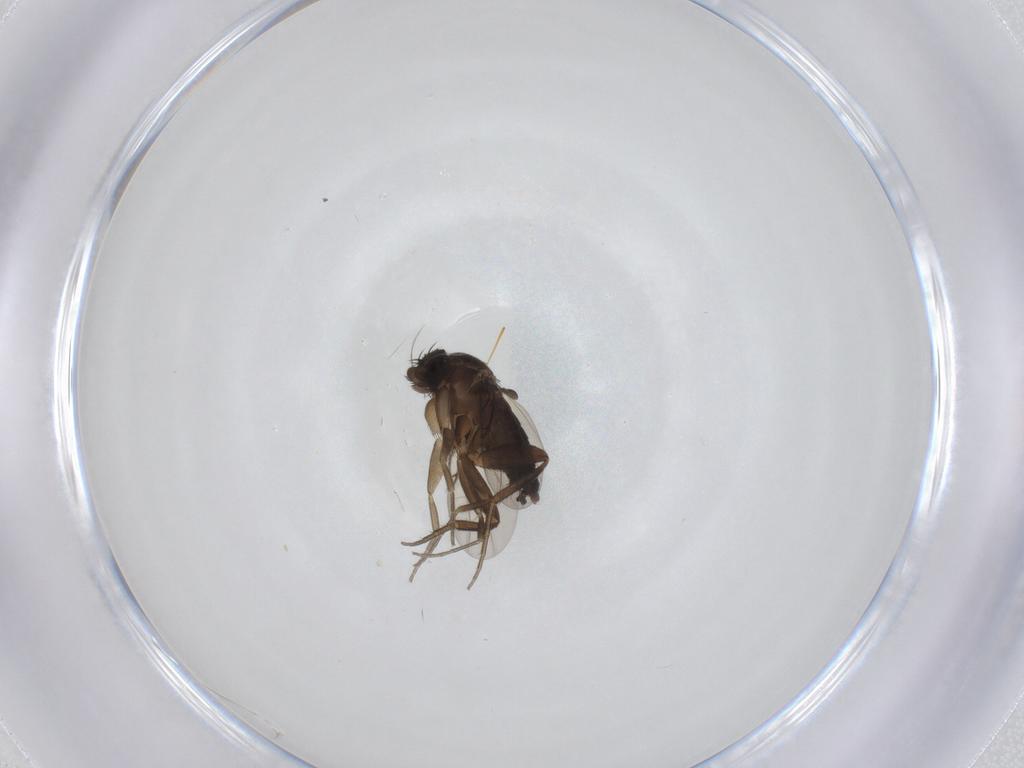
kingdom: Animalia
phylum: Arthropoda
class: Insecta
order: Diptera
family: Phoridae
